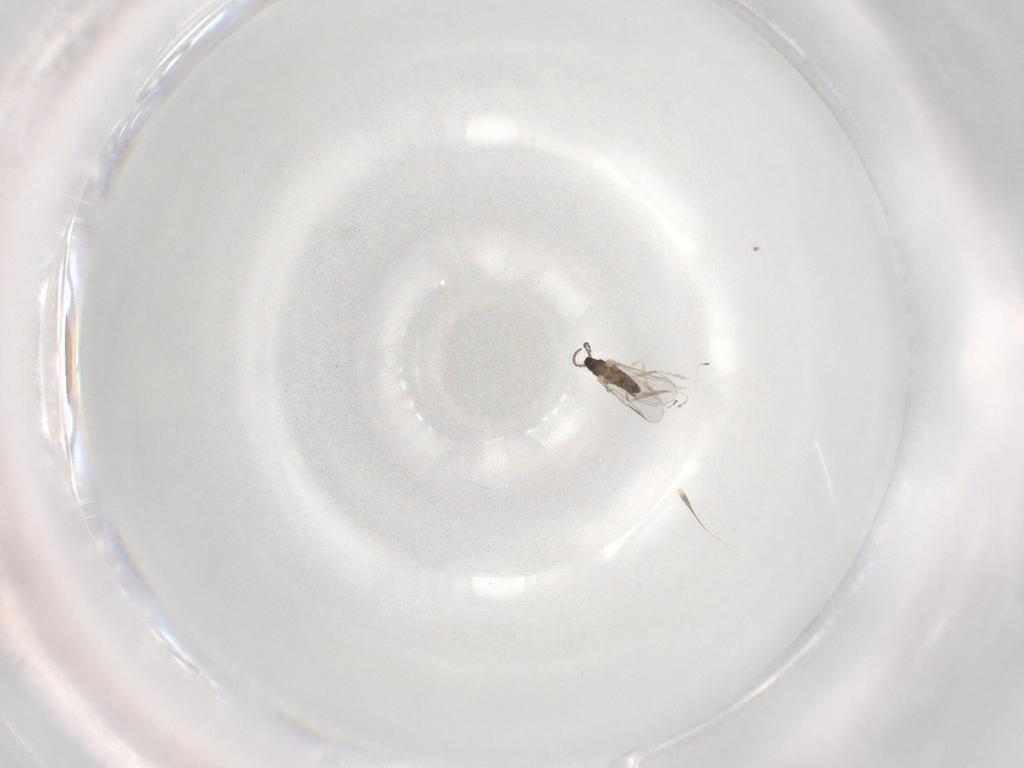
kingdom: Animalia
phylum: Arthropoda
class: Insecta
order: Diptera
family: Cecidomyiidae
